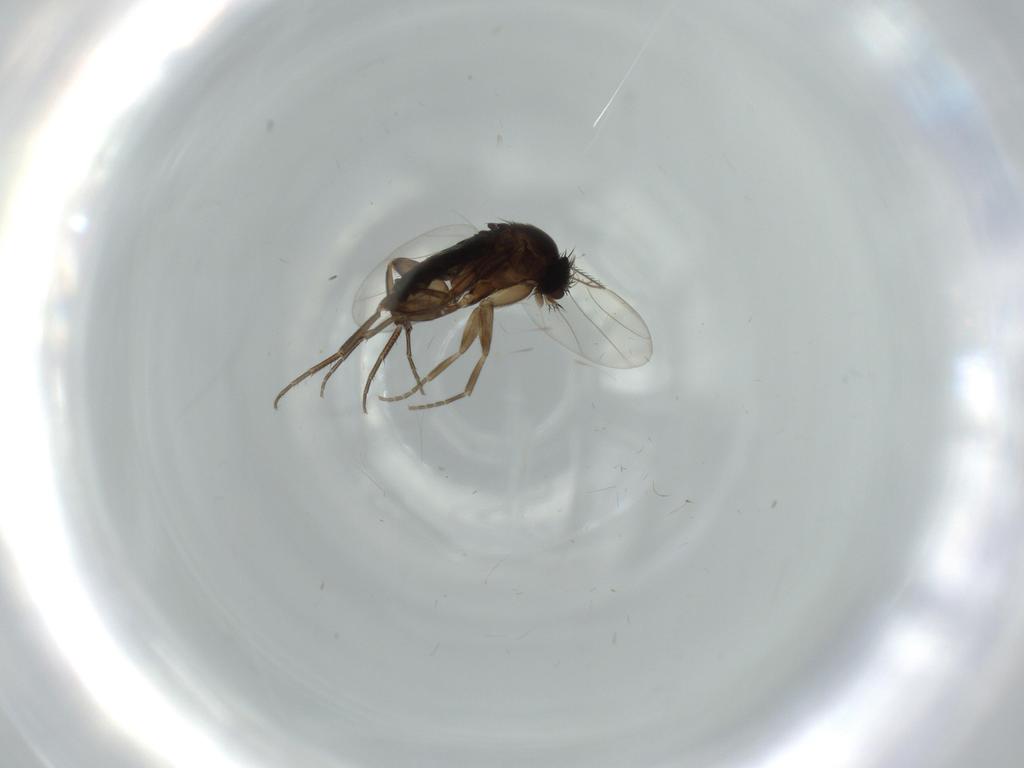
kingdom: Animalia
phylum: Arthropoda
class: Insecta
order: Diptera
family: Phoridae
